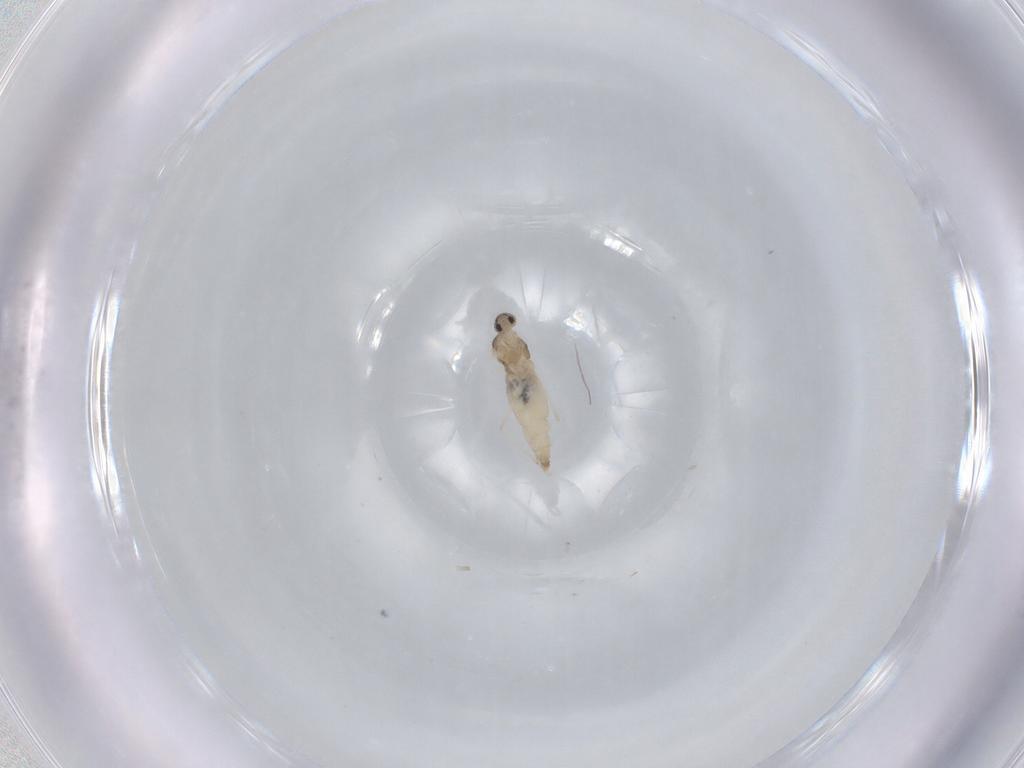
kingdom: Animalia
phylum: Arthropoda
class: Insecta
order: Diptera
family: Cecidomyiidae
